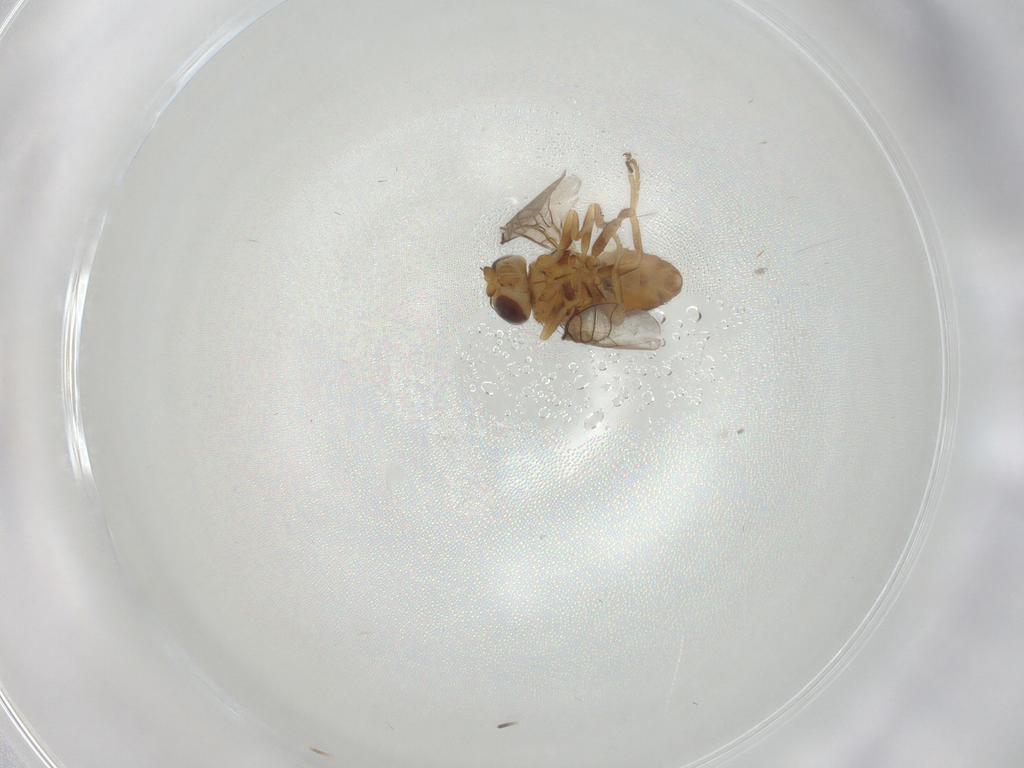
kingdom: Animalia
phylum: Arthropoda
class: Insecta
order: Diptera
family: Chloropidae
